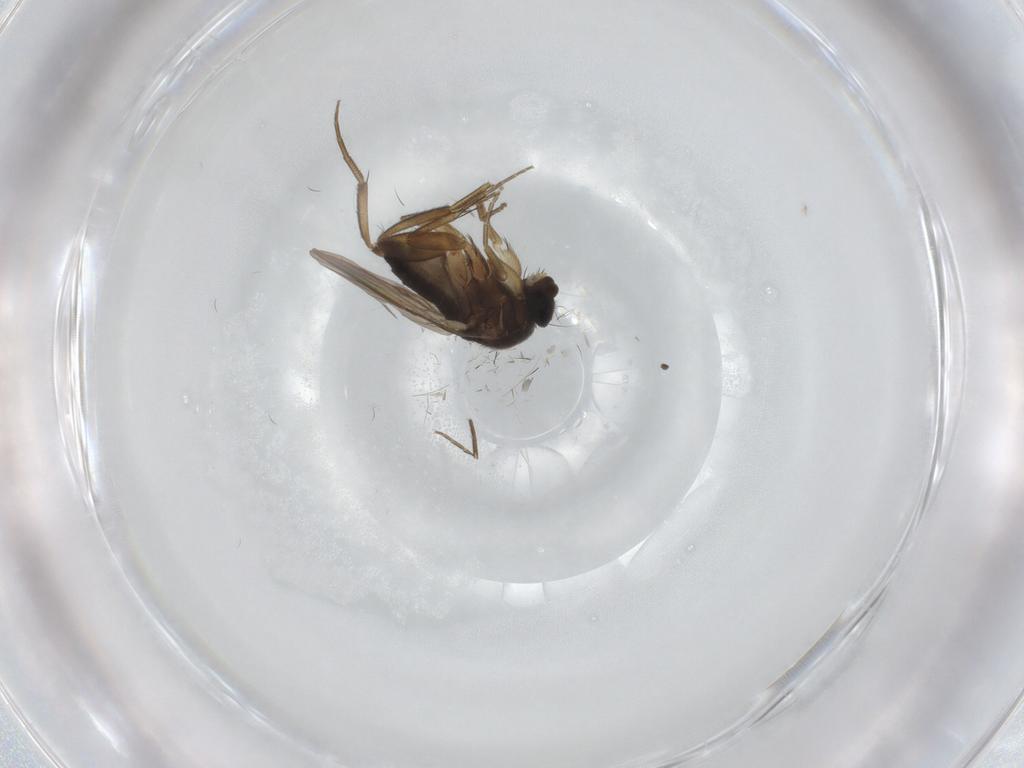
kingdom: Animalia
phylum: Arthropoda
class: Insecta
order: Diptera
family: Phoridae
